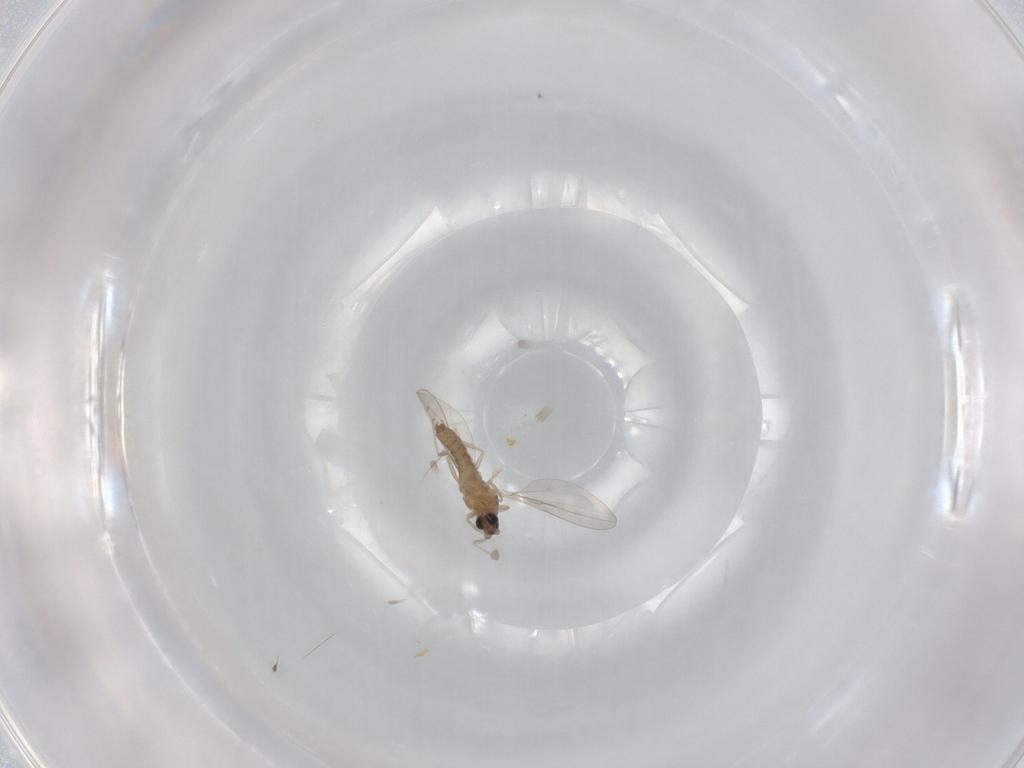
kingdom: Animalia
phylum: Arthropoda
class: Insecta
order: Diptera
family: Cecidomyiidae
